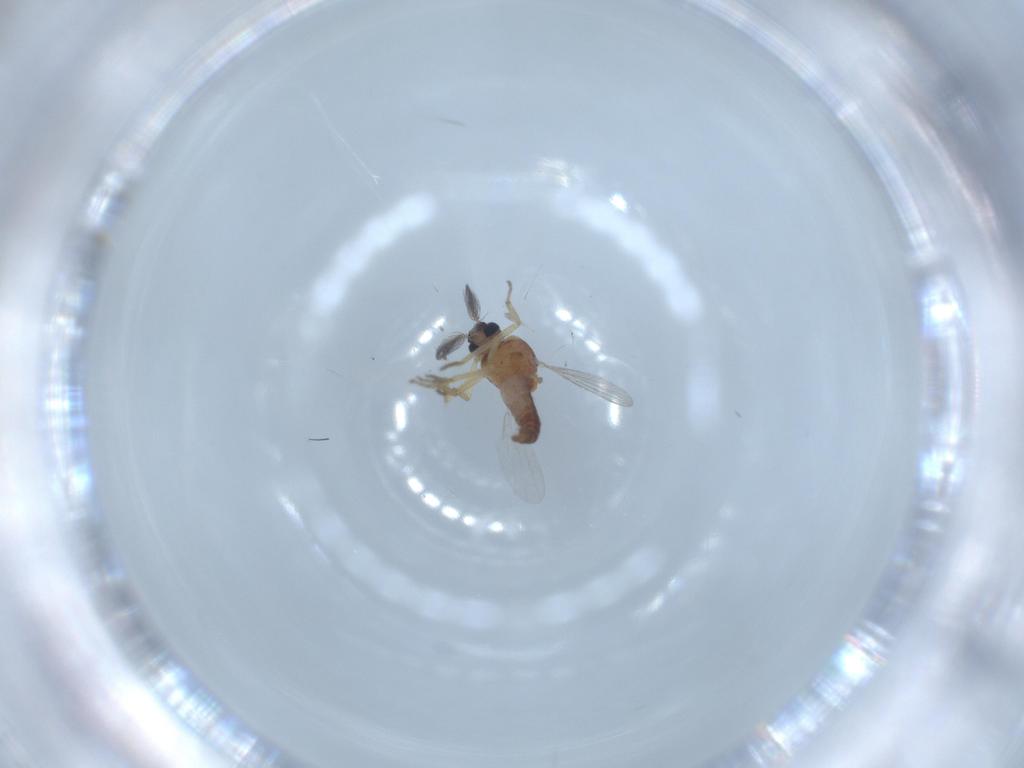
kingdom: Animalia
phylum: Arthropoda
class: Insecta
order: Diptera
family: Sciaridae
